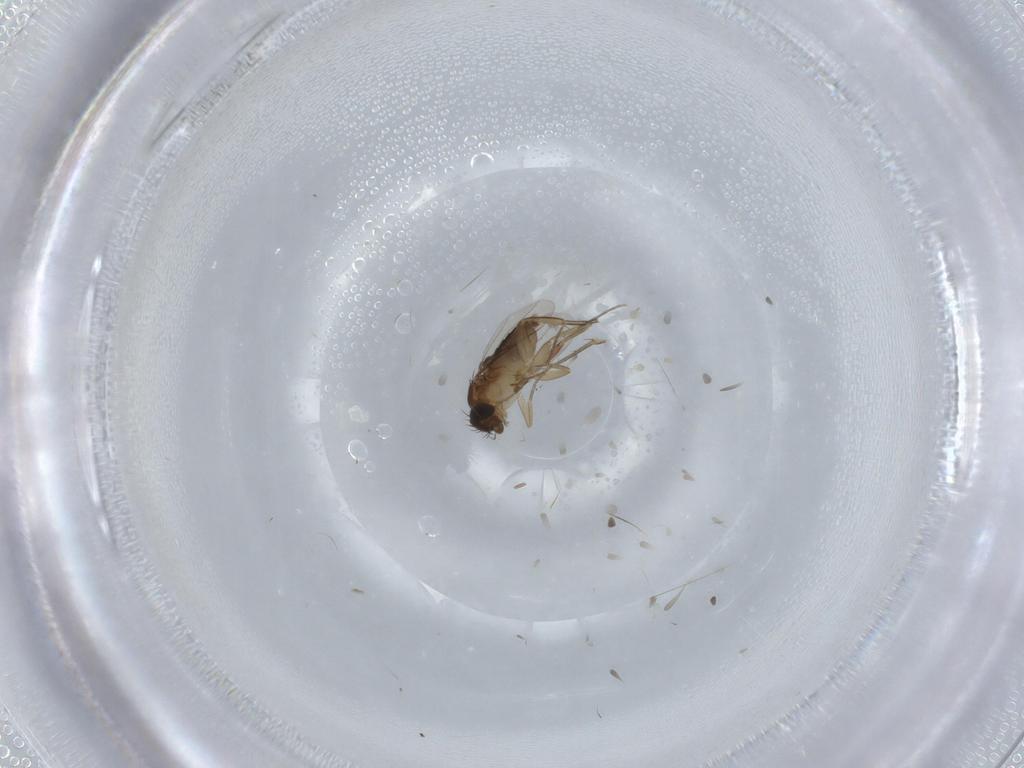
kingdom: Animalia
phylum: Arthropoda
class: Insecta
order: Diptera
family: Phoridae
